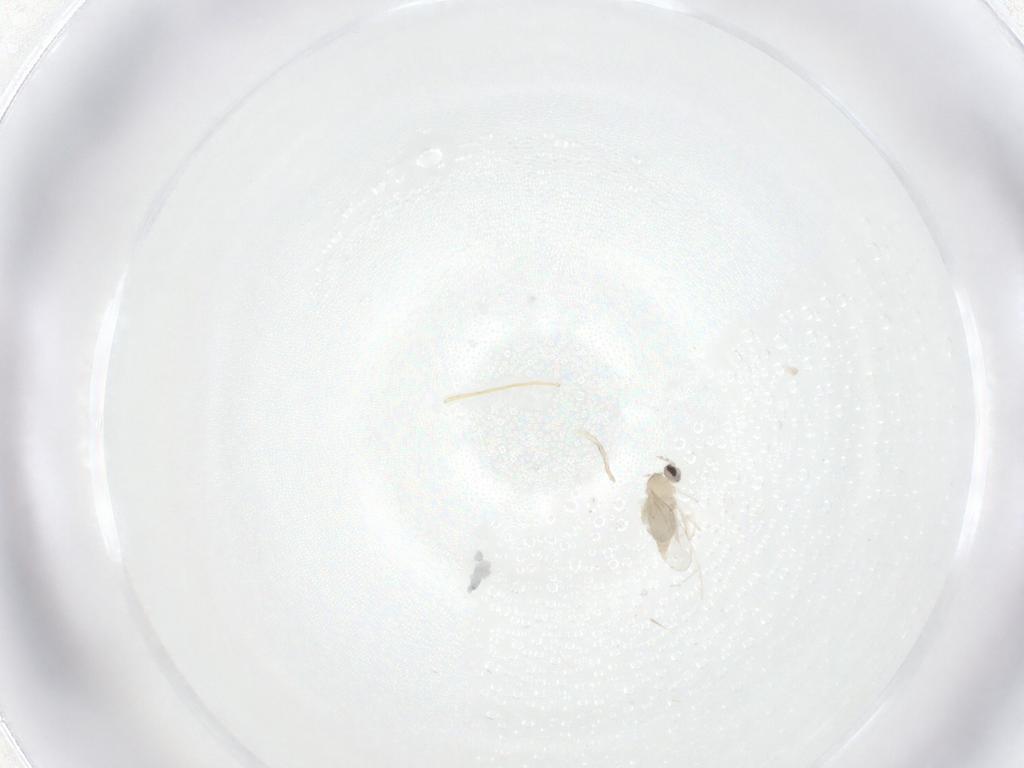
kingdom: Animalia
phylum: Arthropoda
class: Insecta
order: Diptera
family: Cecidomyiidae
